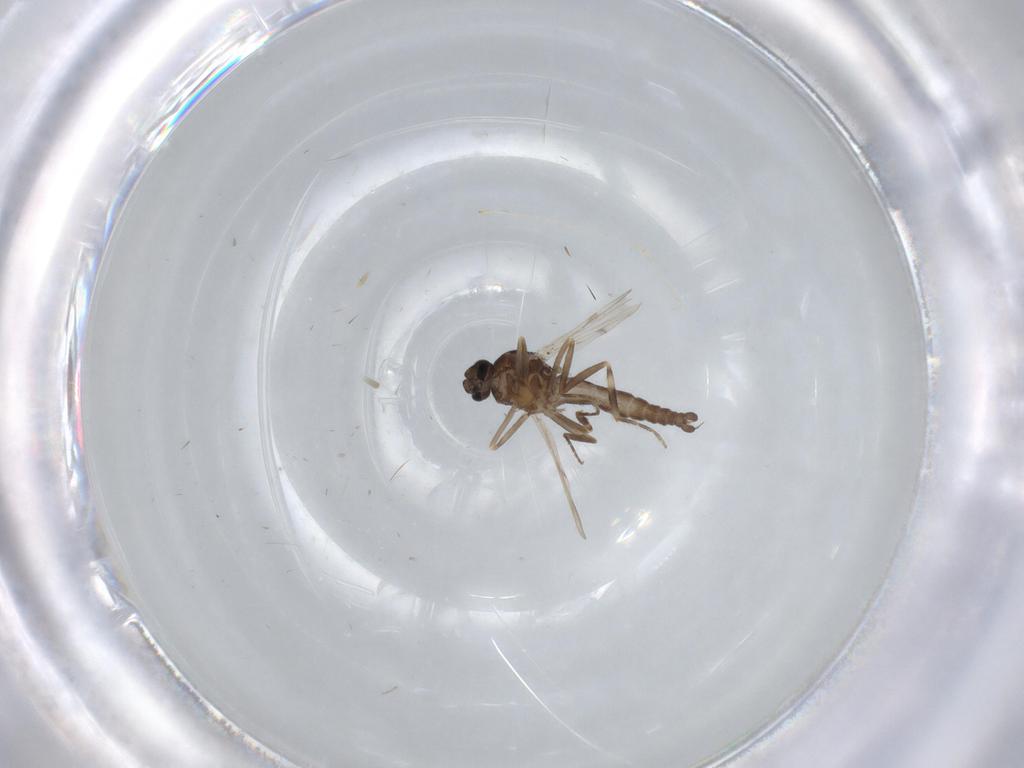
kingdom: Animalia
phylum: Arthropoda
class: Insecta
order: Diptera
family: Ceratopogonidae
